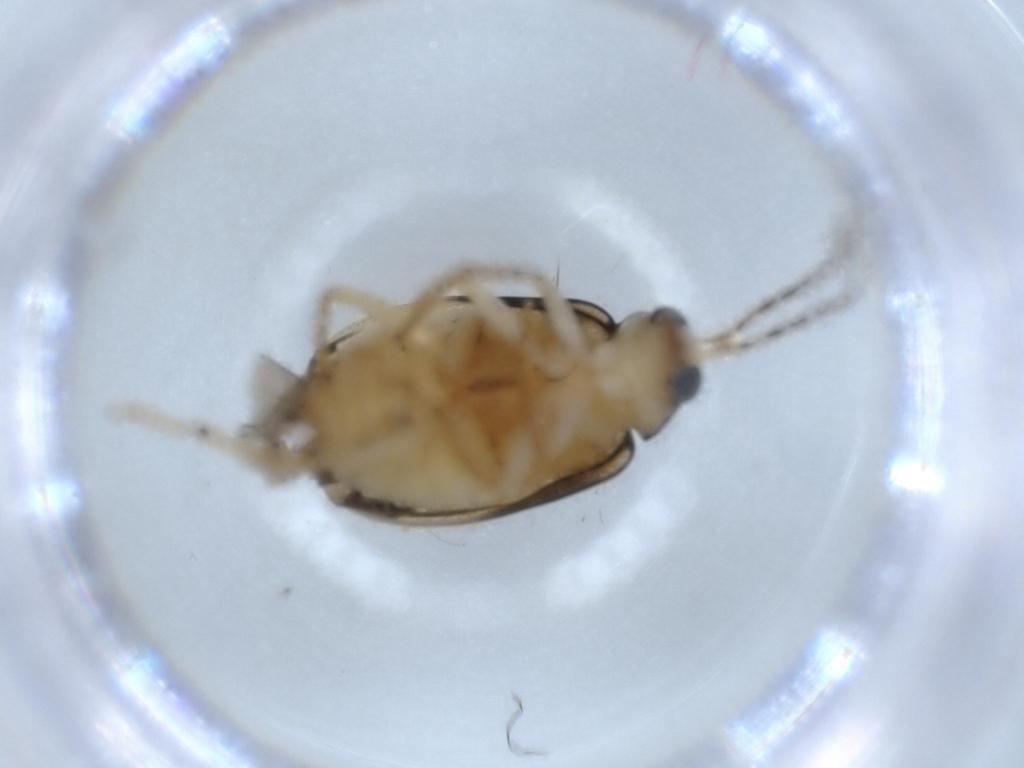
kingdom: Animalia
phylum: Arthropoda
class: Insecta
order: Coleoptera
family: Chrysomelidae
